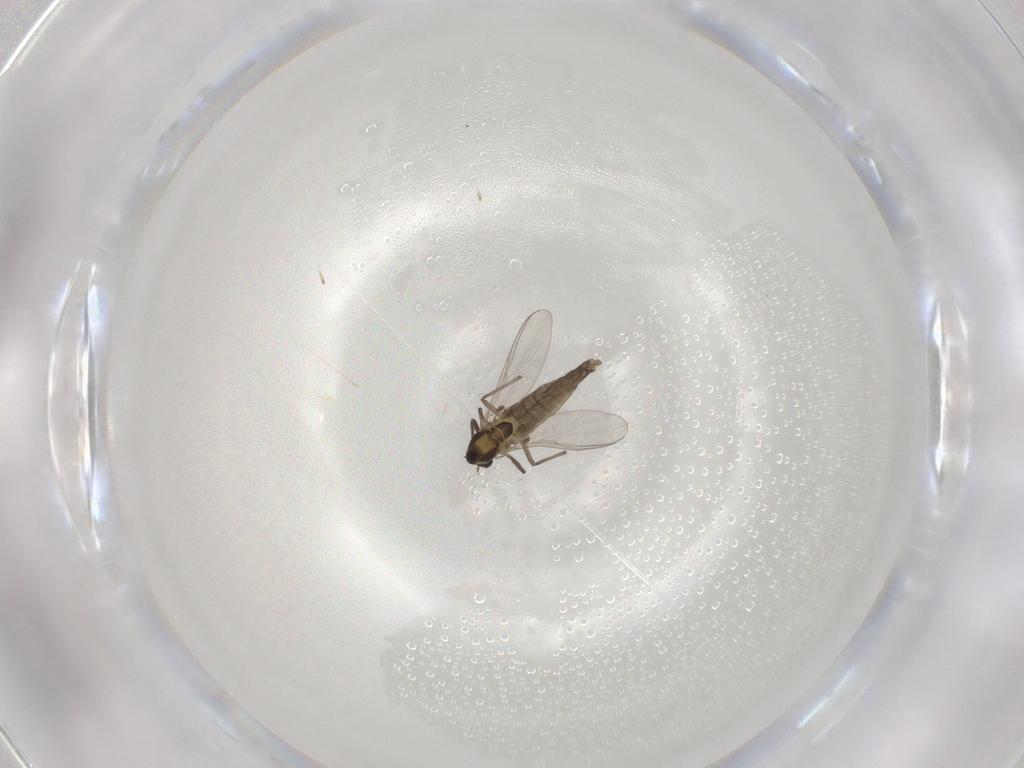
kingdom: Animalia
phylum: Arthropoda
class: Insecta
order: Diptera
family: Chironomidae
